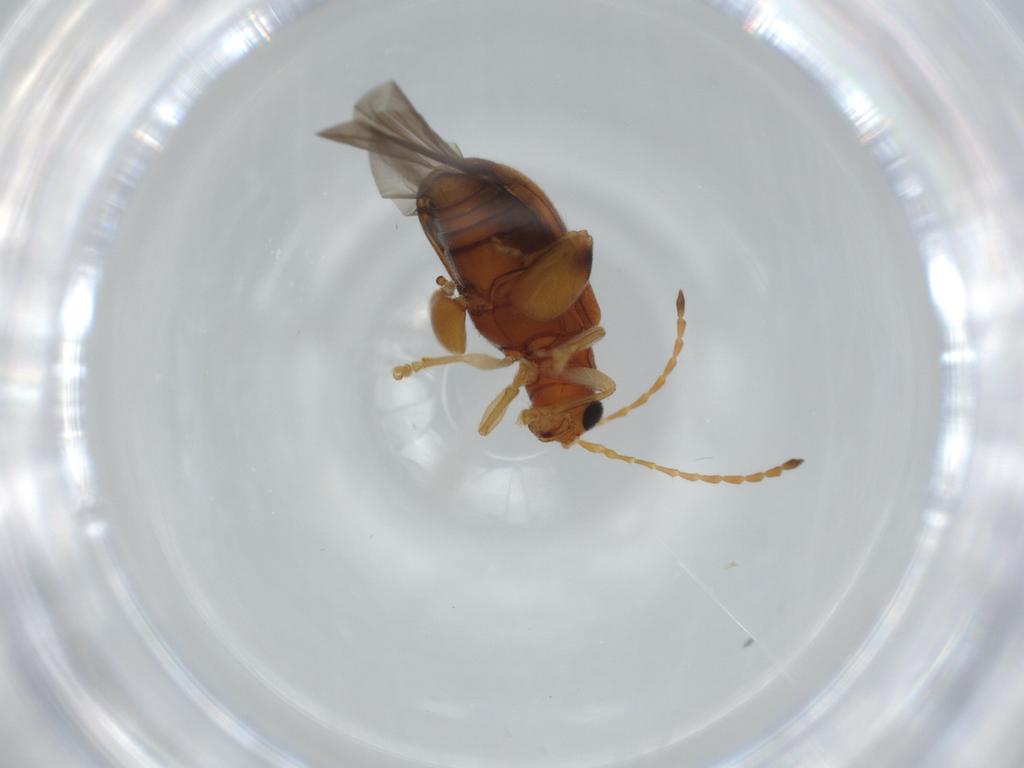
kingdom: Animalia
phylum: Arthropoda
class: Insecta
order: Coleoptera
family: Chrysomelidae
